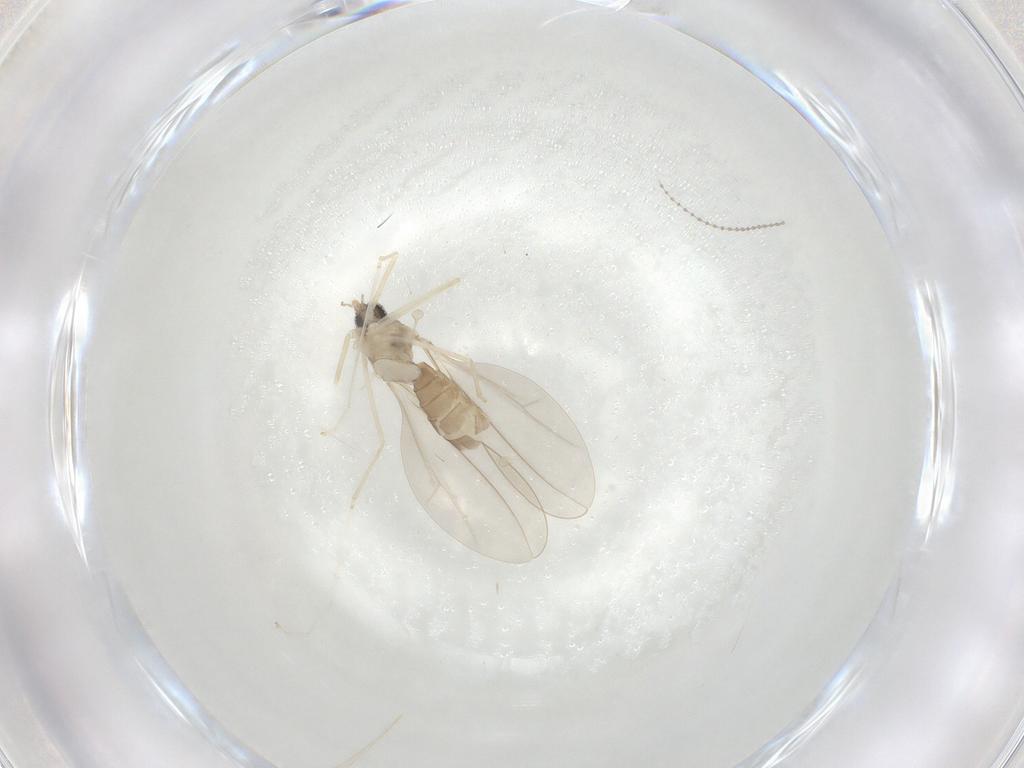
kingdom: Animalia
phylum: Arthropoda
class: Insecta
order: Diptera
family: Cecidomyiidae
